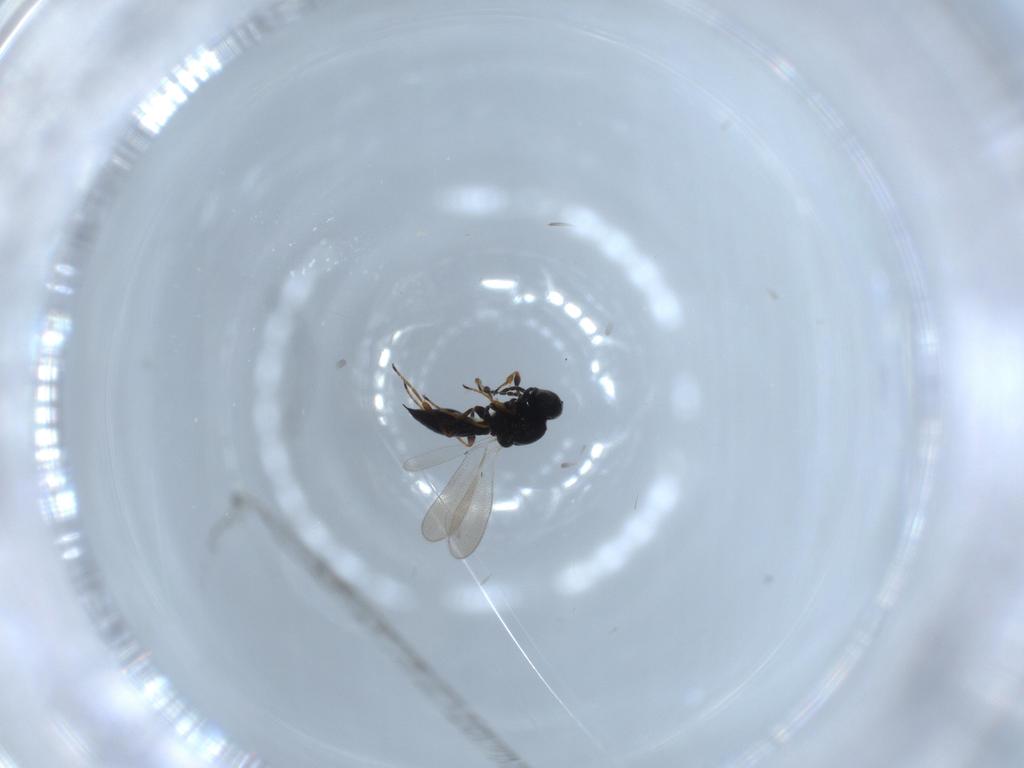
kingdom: Animalia
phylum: Arthropoda
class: Insecta
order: Hymenoptera
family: Platygastridae
